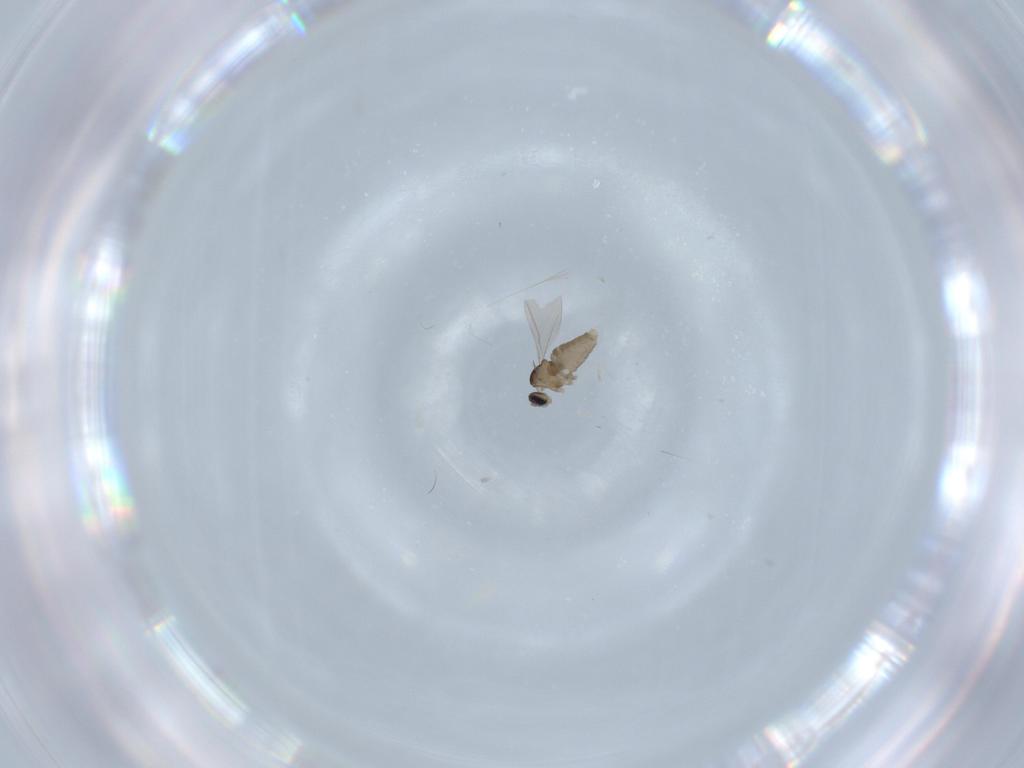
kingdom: Animalia
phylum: Arthropoda
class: Insecta
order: Diptera
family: Cecidomyiidae
